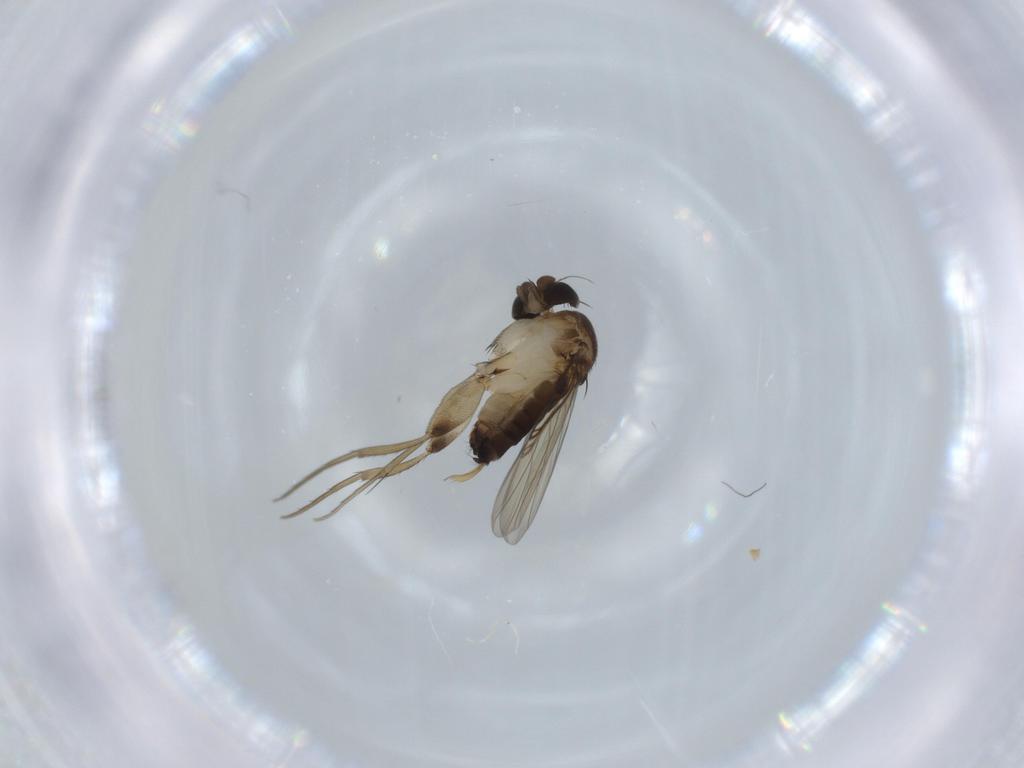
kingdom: Animalia
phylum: Arthropoda
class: Insecta
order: Diptera
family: Phoridae
